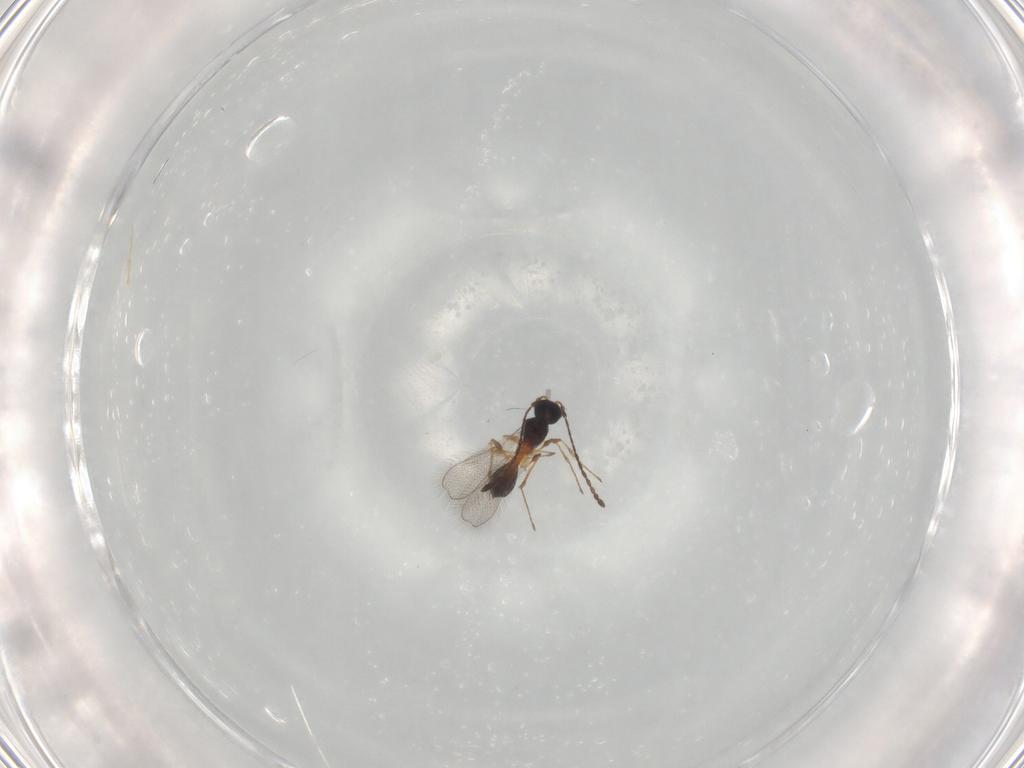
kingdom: Animalia
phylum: Arthropoda
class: Insecta
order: Hymenoptera
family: Diapriidae
